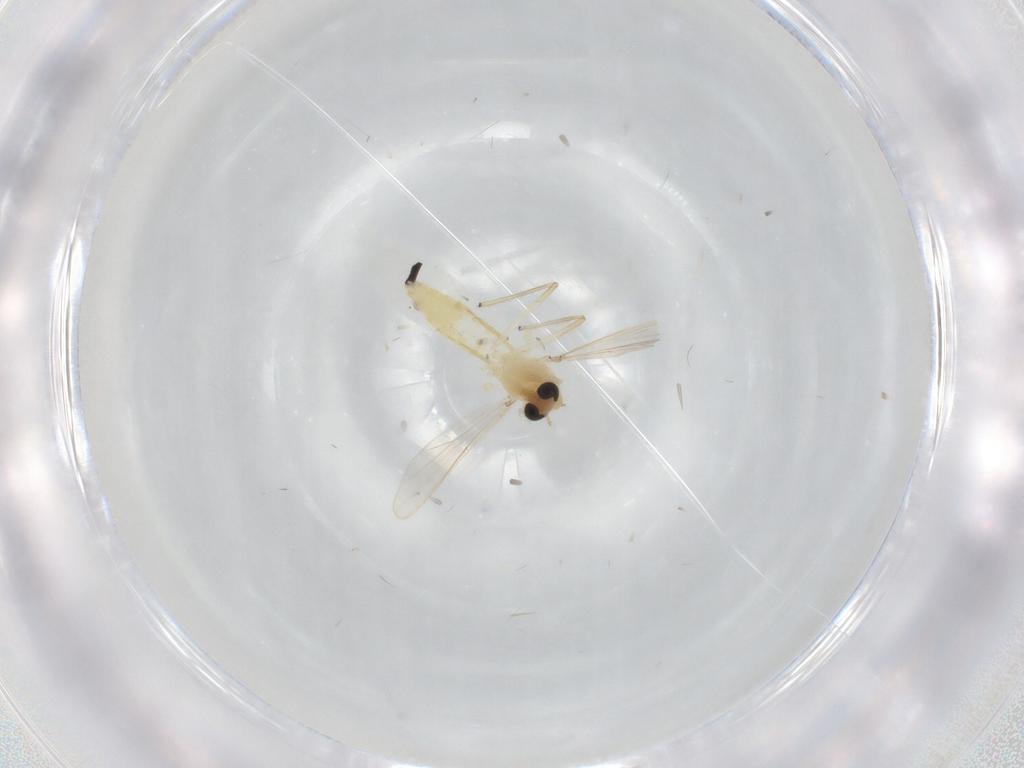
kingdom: Animalia
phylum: Arthropoda
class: Insecta
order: Diptera
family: Chironomidae
